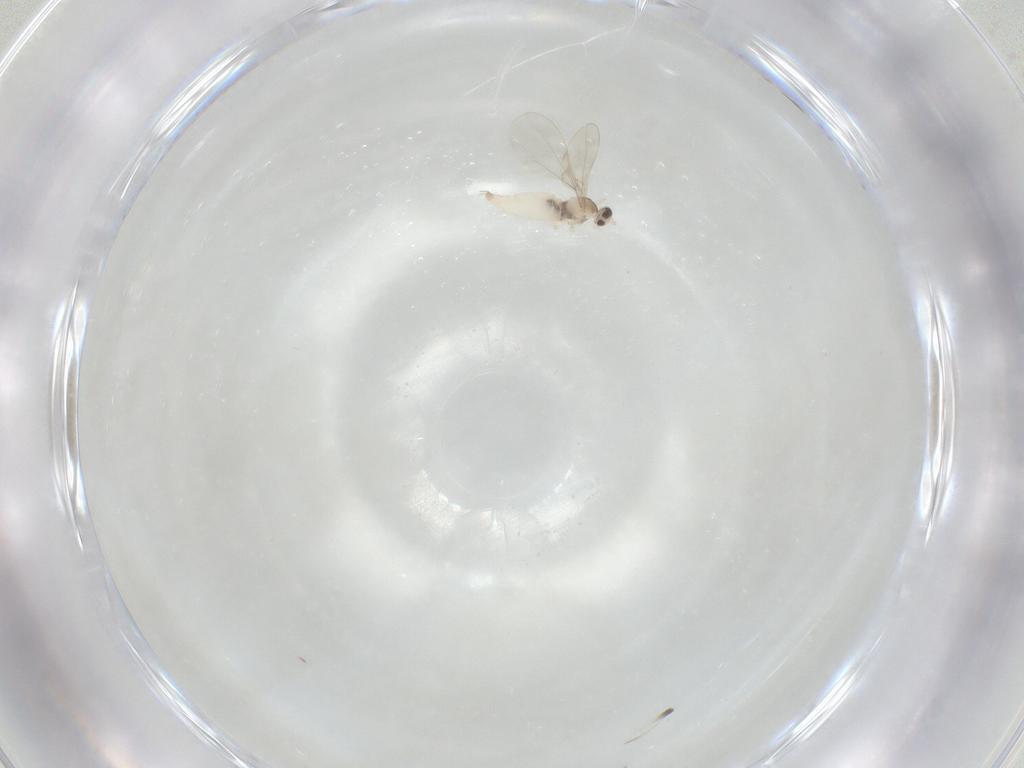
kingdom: Animalia
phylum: Arthropoda
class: Insecta
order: Diptera
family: Cecidomyiidae
